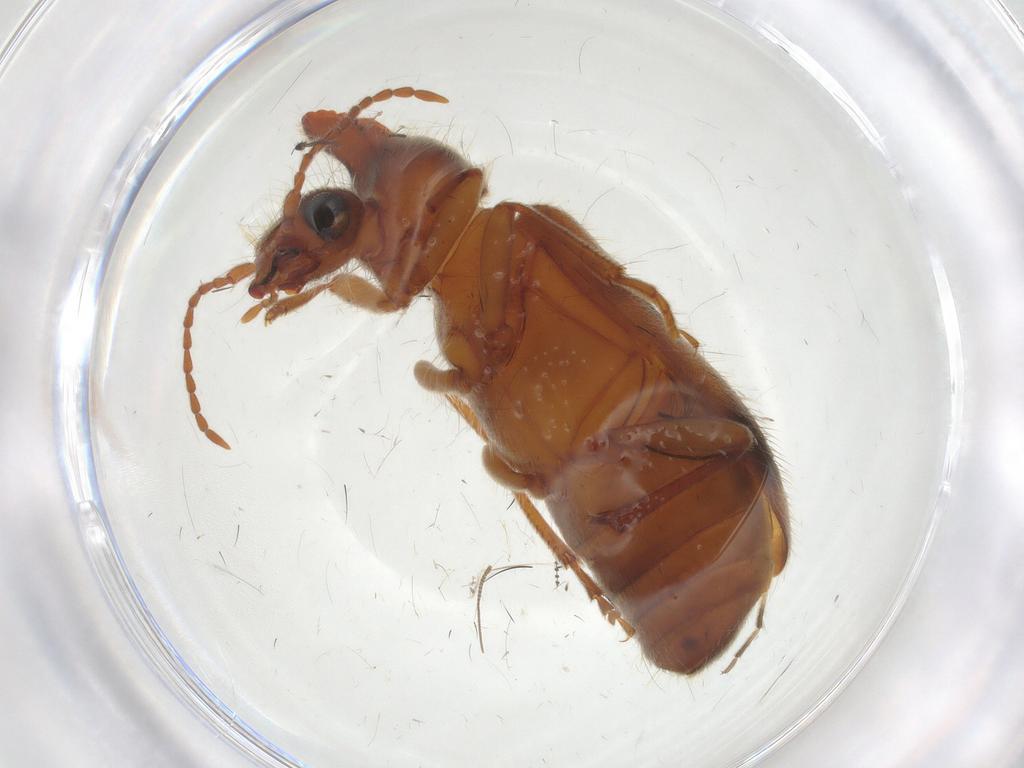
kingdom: Animalia
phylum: Arthropoda
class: Insecta
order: Coleoptera
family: Anthicidae
